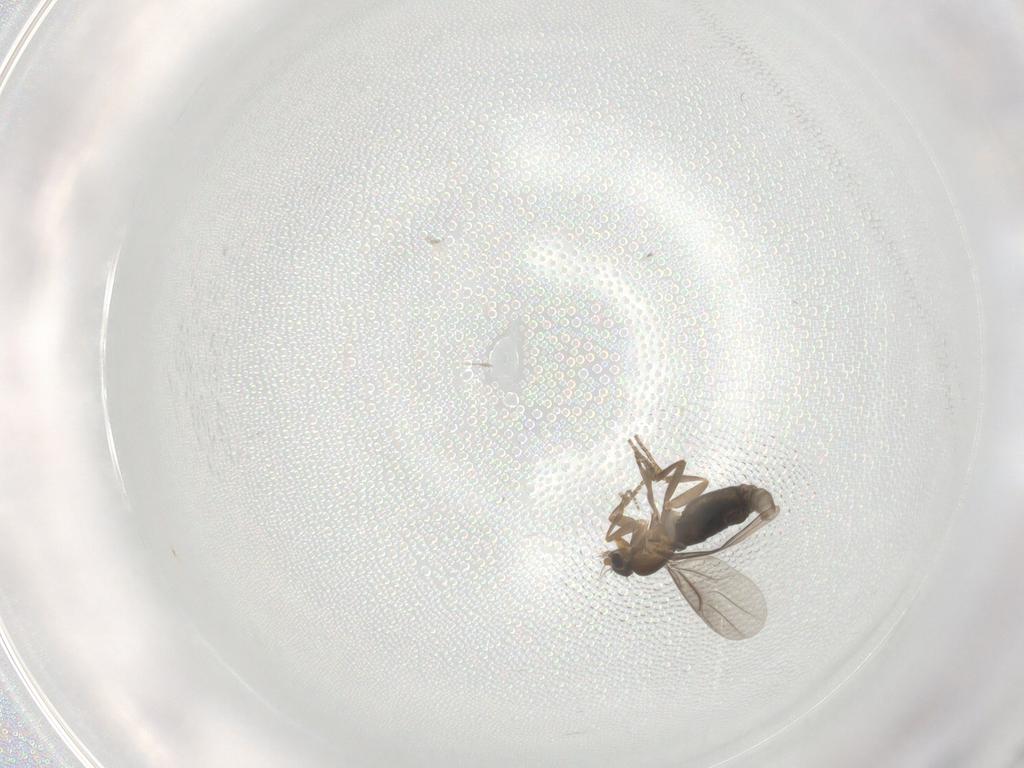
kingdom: Animalia
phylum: Arthropoda
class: Insecta
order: Diptera
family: Phoridae
